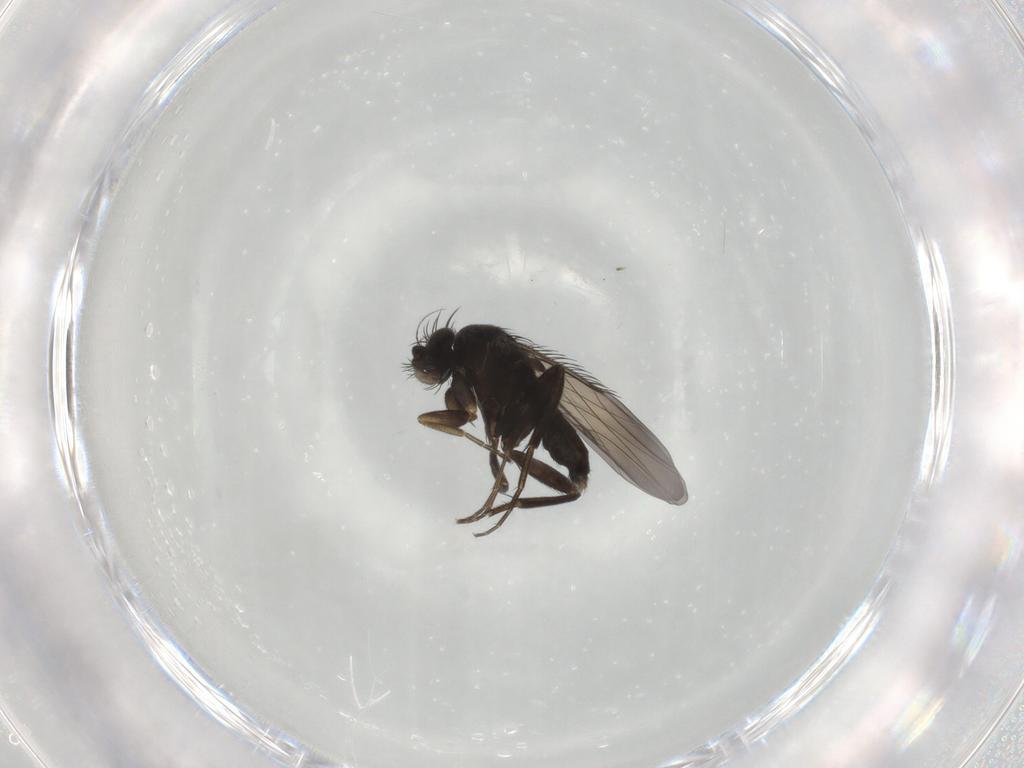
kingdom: Animalia
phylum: Arthropoda
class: Insecta
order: Diptera
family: Phoridae
